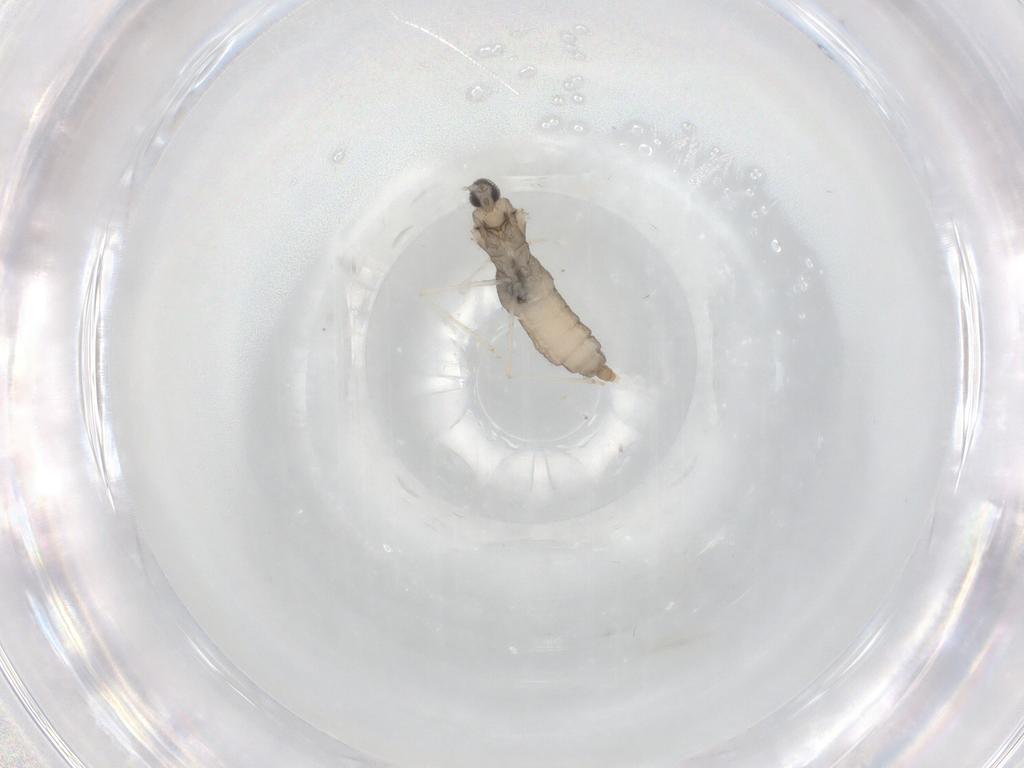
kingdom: Animalia
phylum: Arthropoda
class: Insecta
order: Diptera
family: Cecidomyiidae
